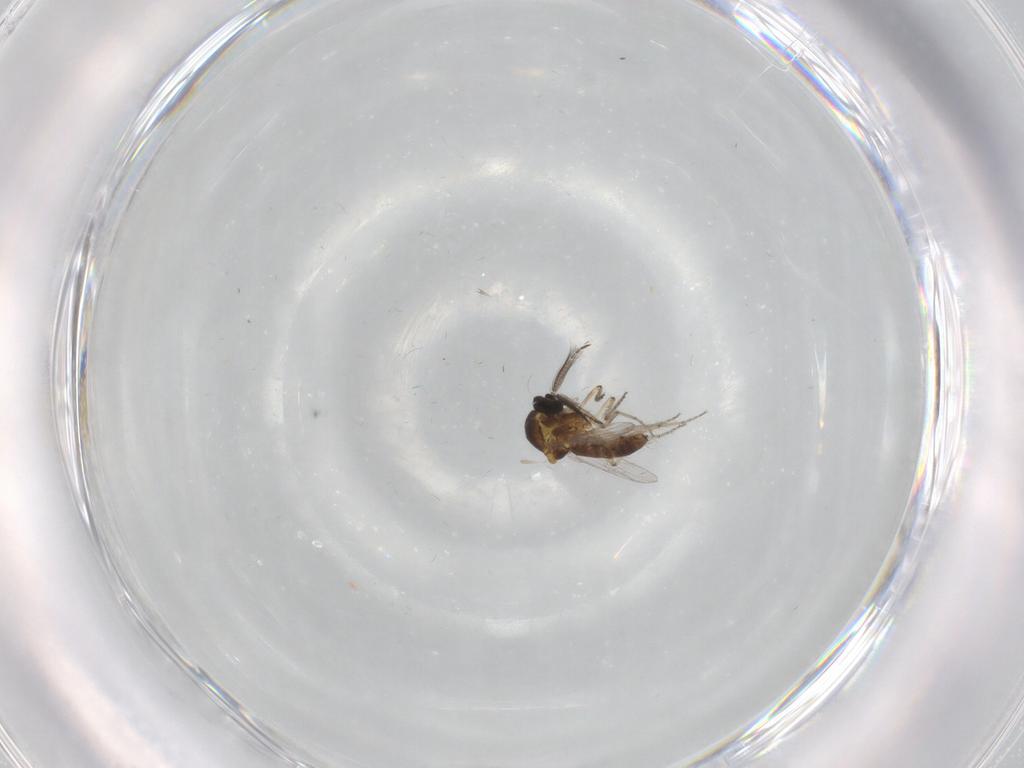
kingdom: Animalia
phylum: Arthropoda
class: Insecta
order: Diptera
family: Ceratopogonidae
